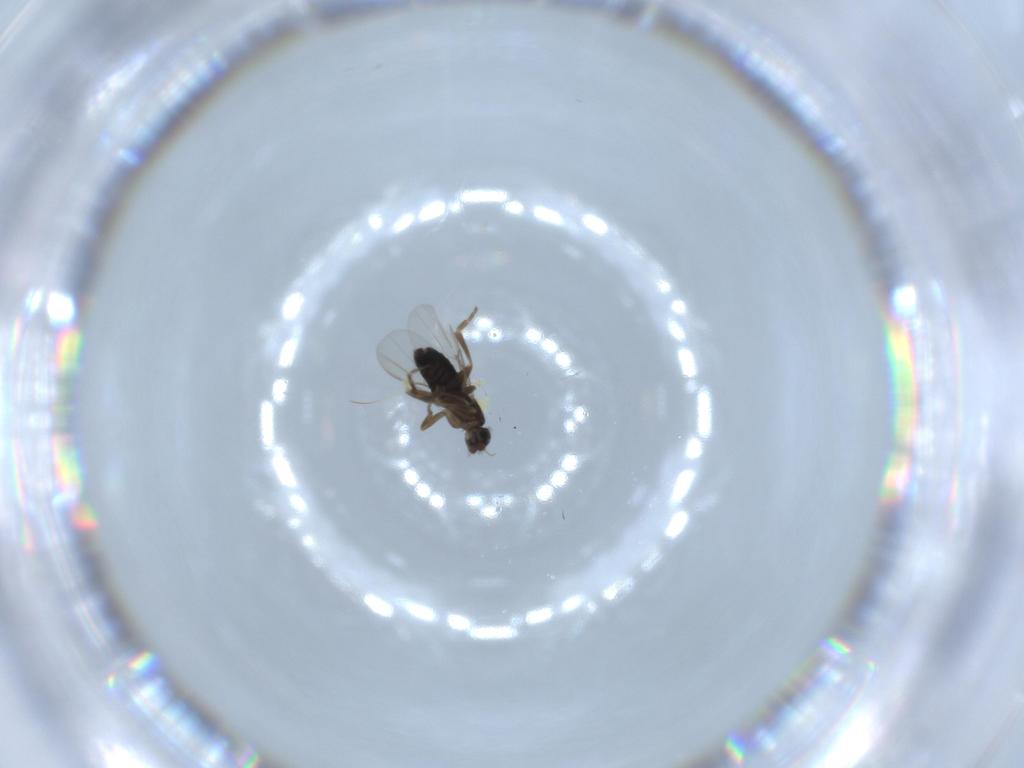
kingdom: Animalia
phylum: Arthropoda
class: Insecta
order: Diptera
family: Phoridae
